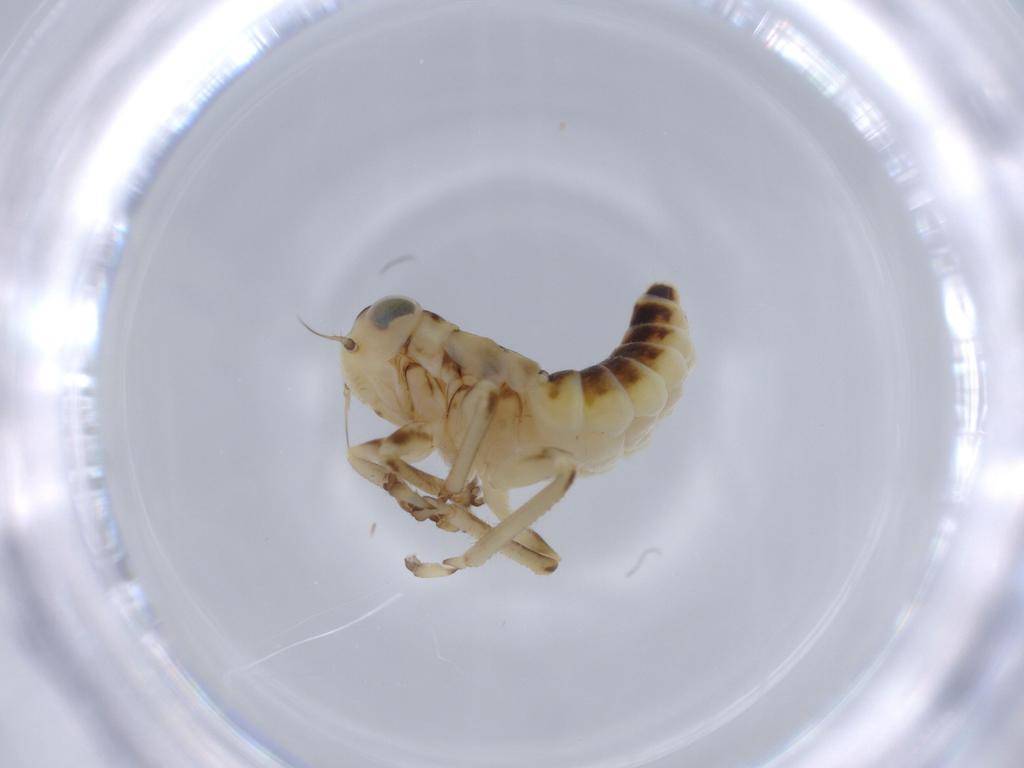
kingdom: Animalia
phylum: Arthropoda
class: Insecta
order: Hemiptera
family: Cicadellidae
